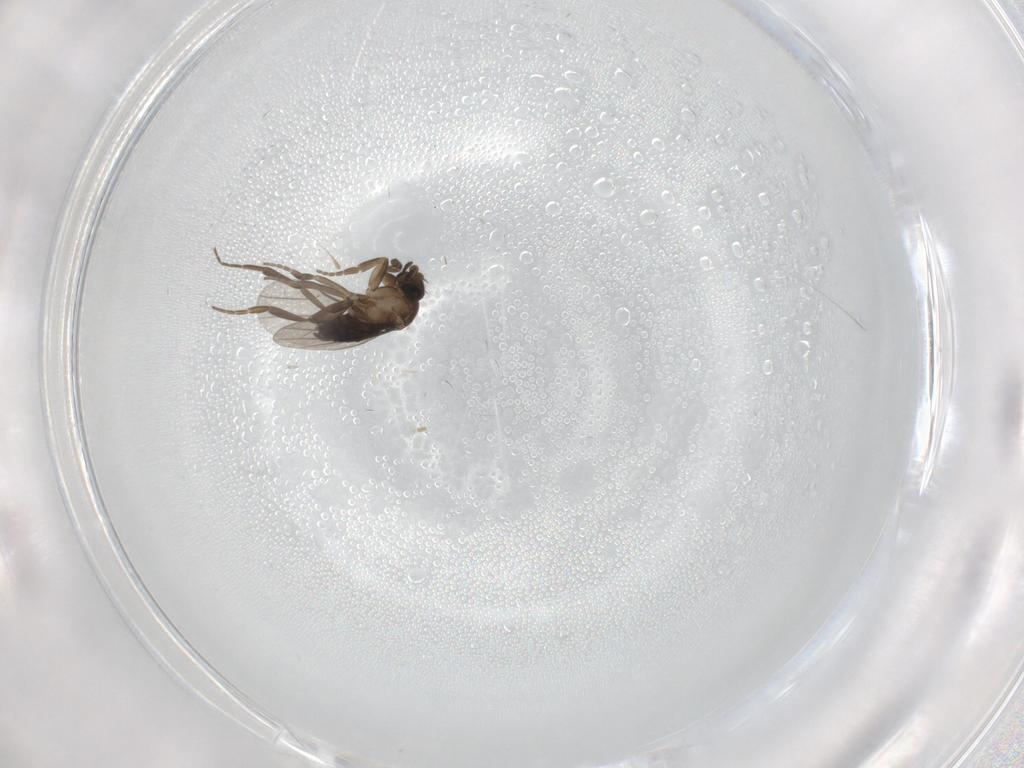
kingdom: Animalia
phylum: Arthropoda
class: Insecta
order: Diptera
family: Phoridae
